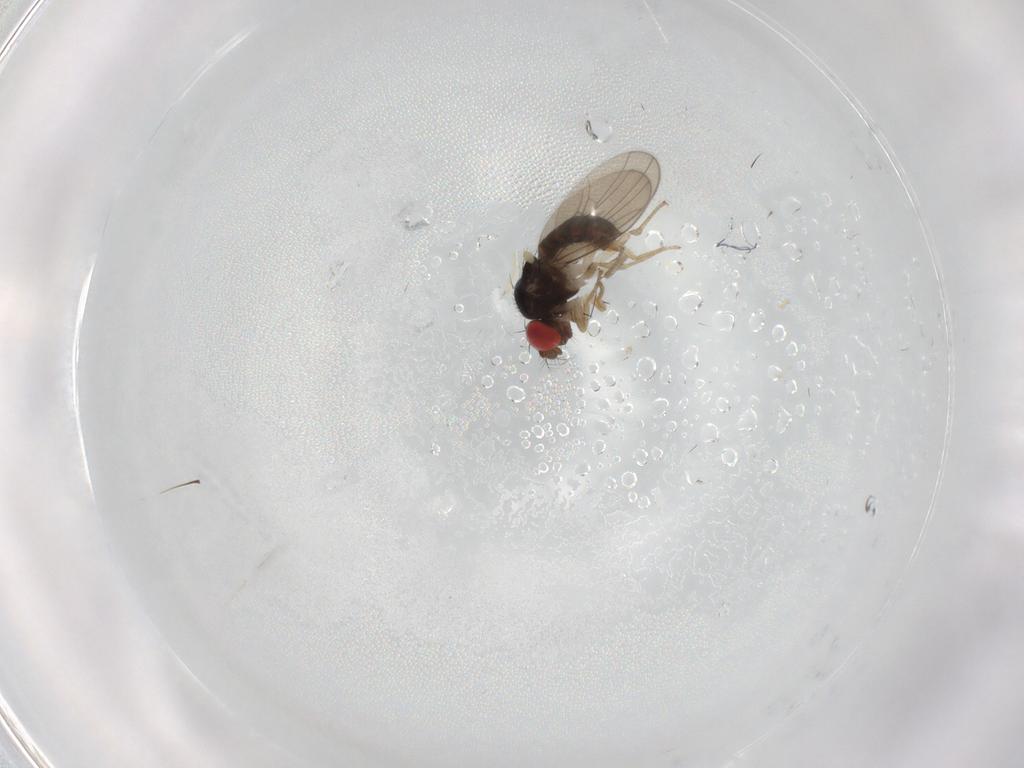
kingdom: Animalia
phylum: Arthropoda
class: Insecta
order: Diptera
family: Drosophilidae
